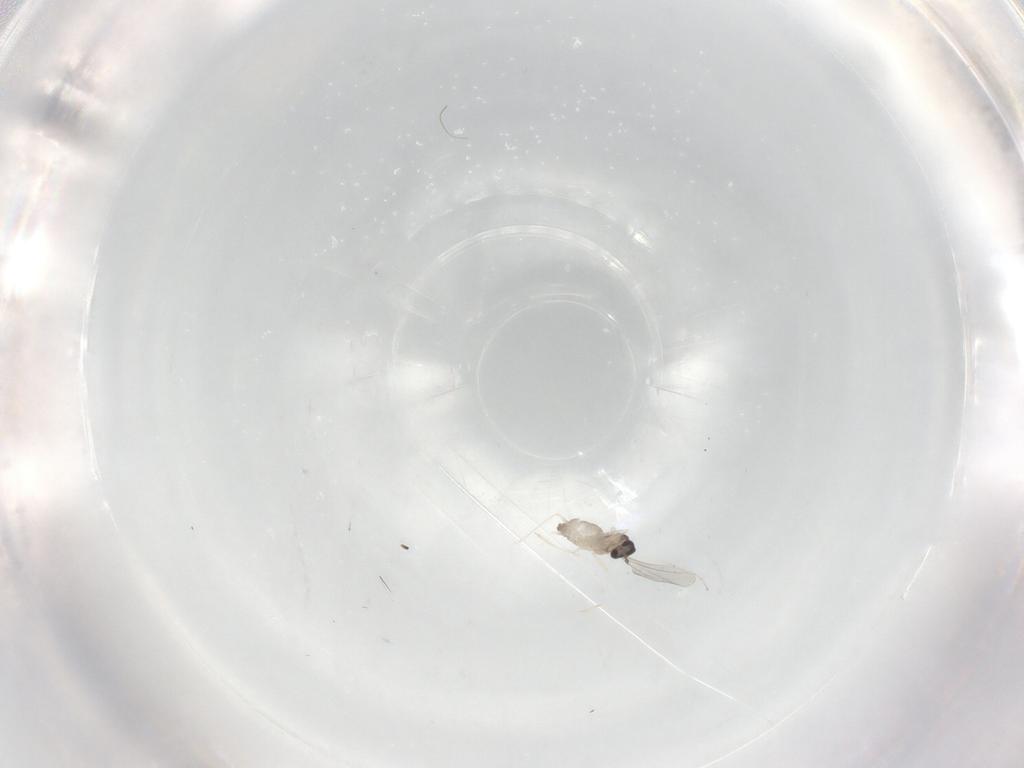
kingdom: Animalia
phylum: Arthropoda
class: Insecta
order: Diptera
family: Cecidomyiidae
